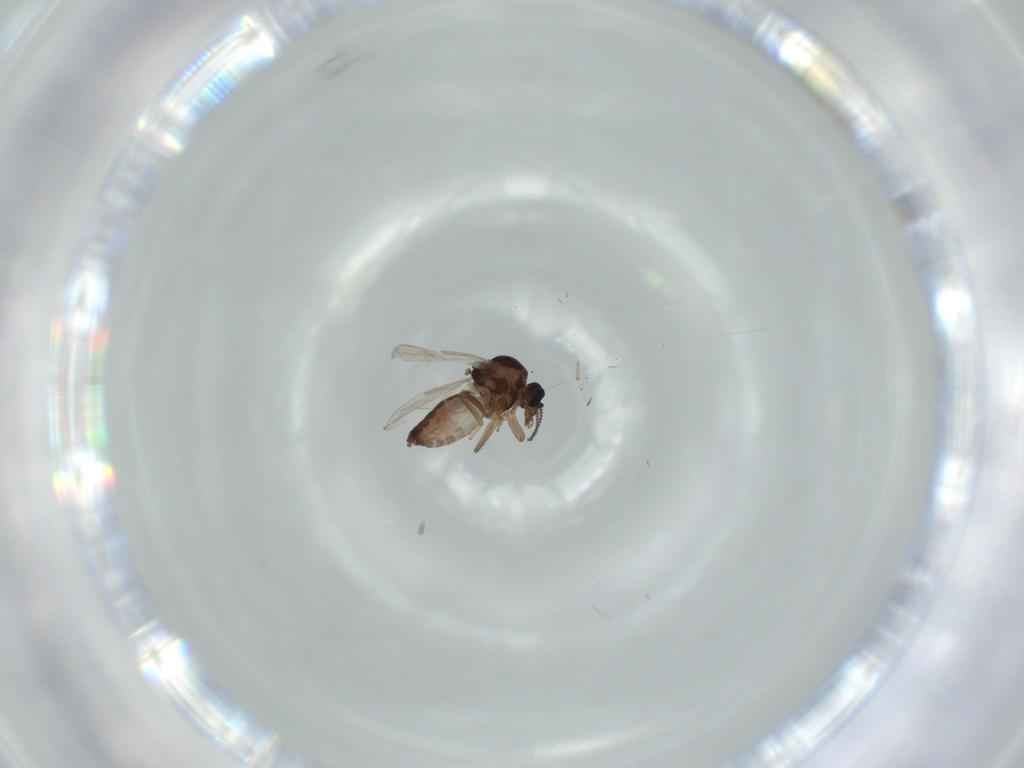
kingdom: Animalia
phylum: Arthropoda
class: Insecta
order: Diptera
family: Ceratopogonidae
